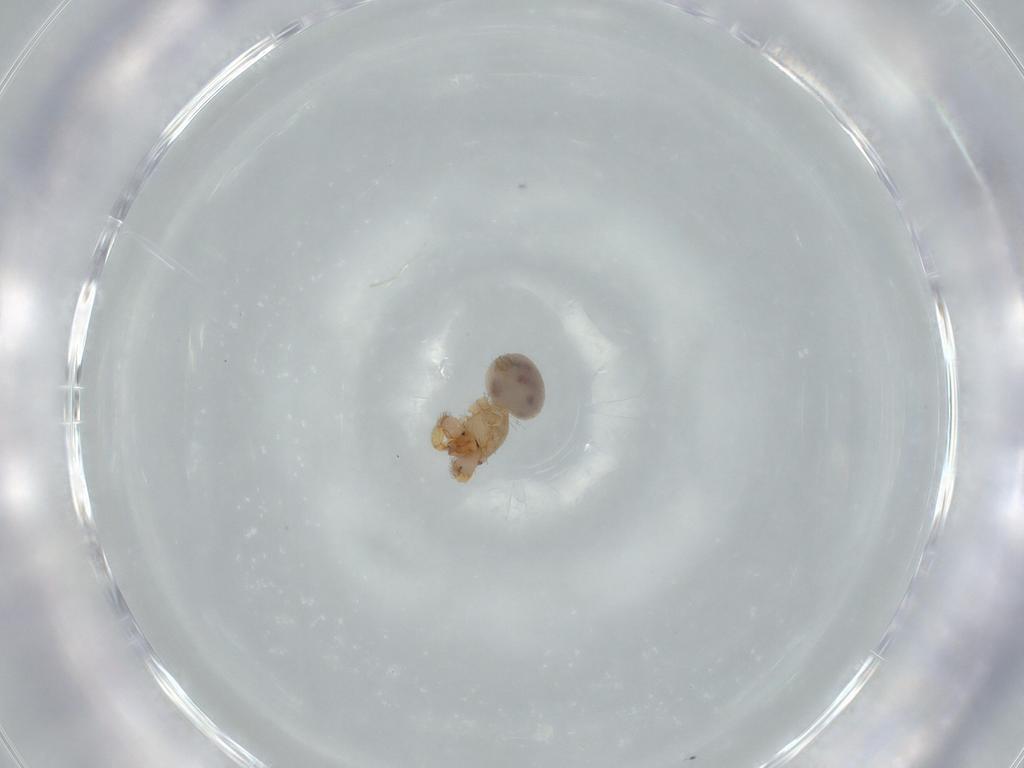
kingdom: Animalia
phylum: Arthropoda
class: Arachnida
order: Araneae
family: Oonopidae
